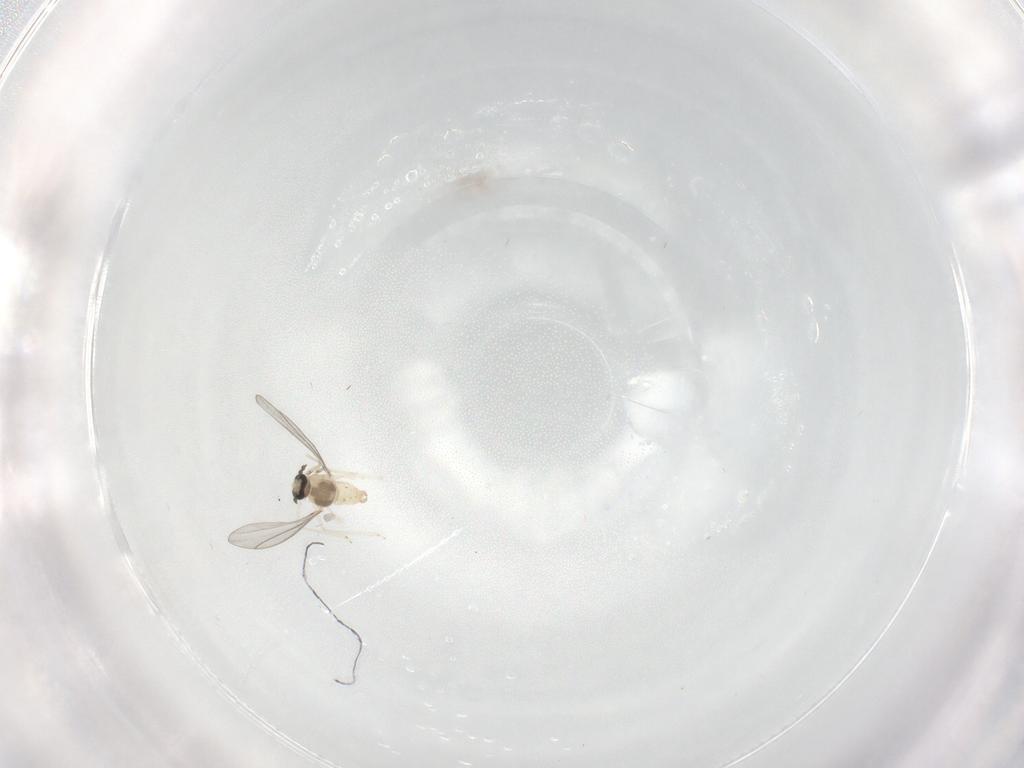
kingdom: Animalia
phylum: Arthropoda
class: Insecta
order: Diptera
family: Cecidomyiidae
